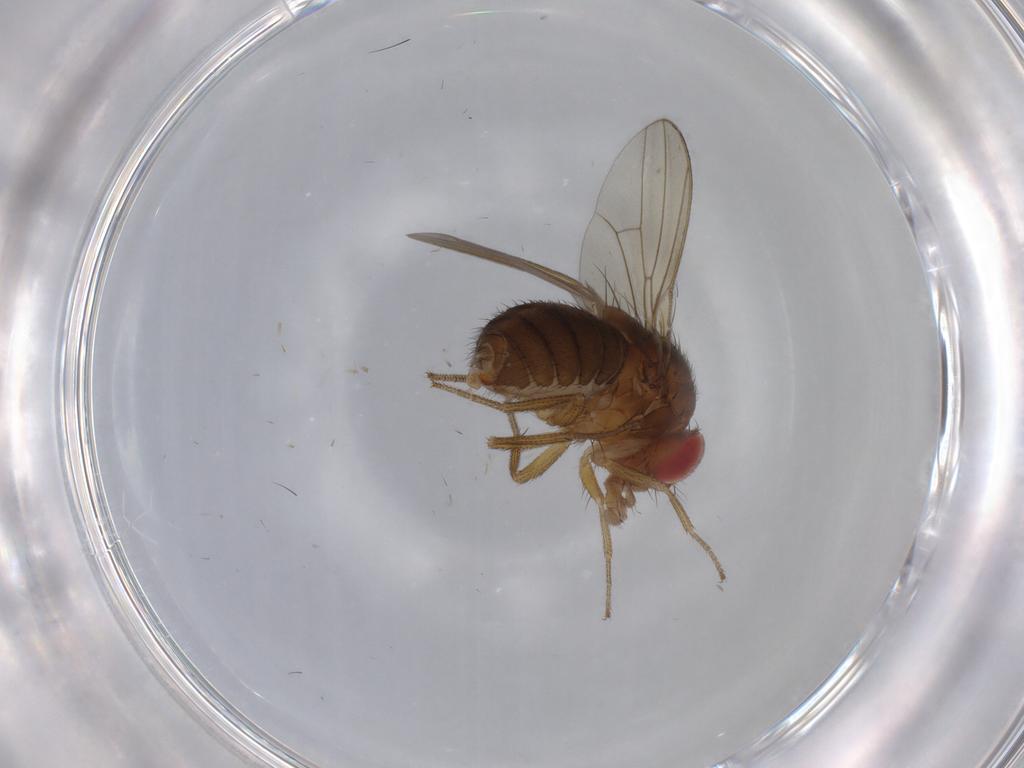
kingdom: Animalia
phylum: Arthropoda
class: Insecta
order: Diptera
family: Drosophilidae
